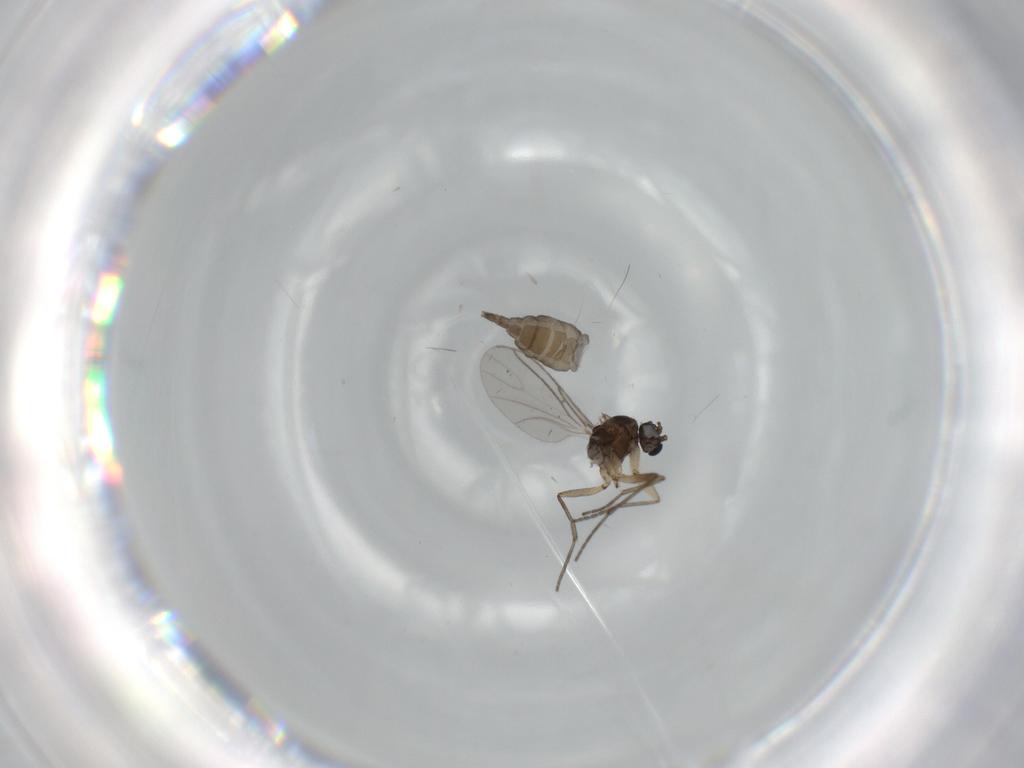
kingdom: Animalia
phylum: Arthropoda
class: Insecta
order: Diptera
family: Sciaridae
